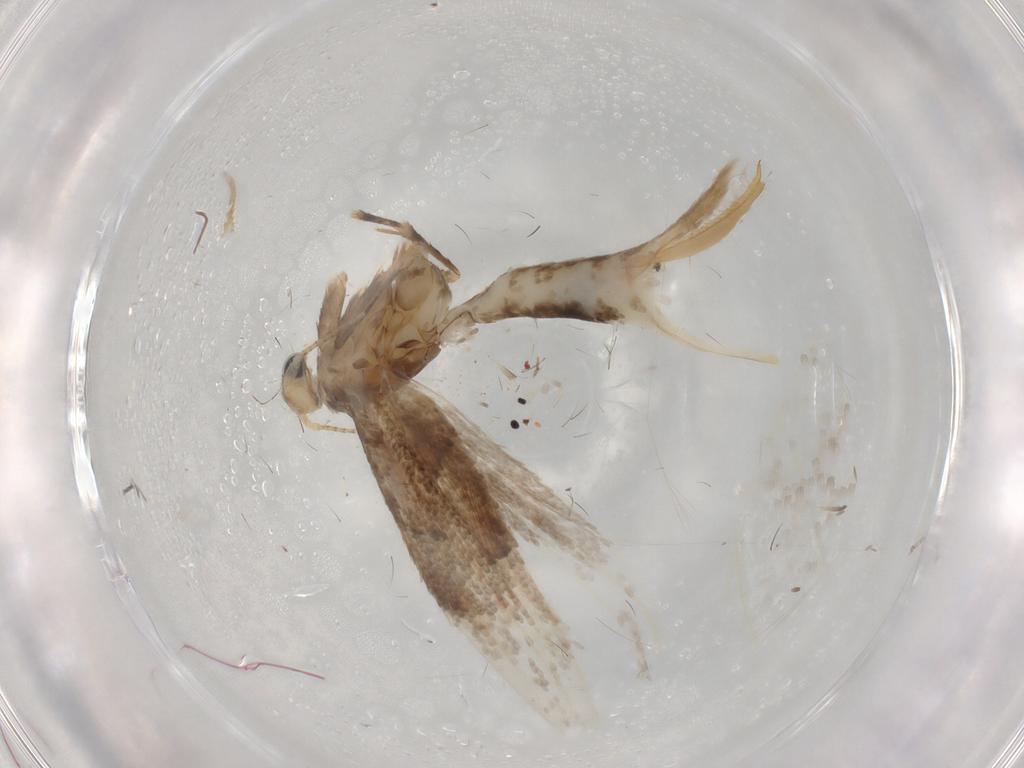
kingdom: Animalia
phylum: Arthropoda
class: Insecta
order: Lepidoptera
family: Gracillariidae
